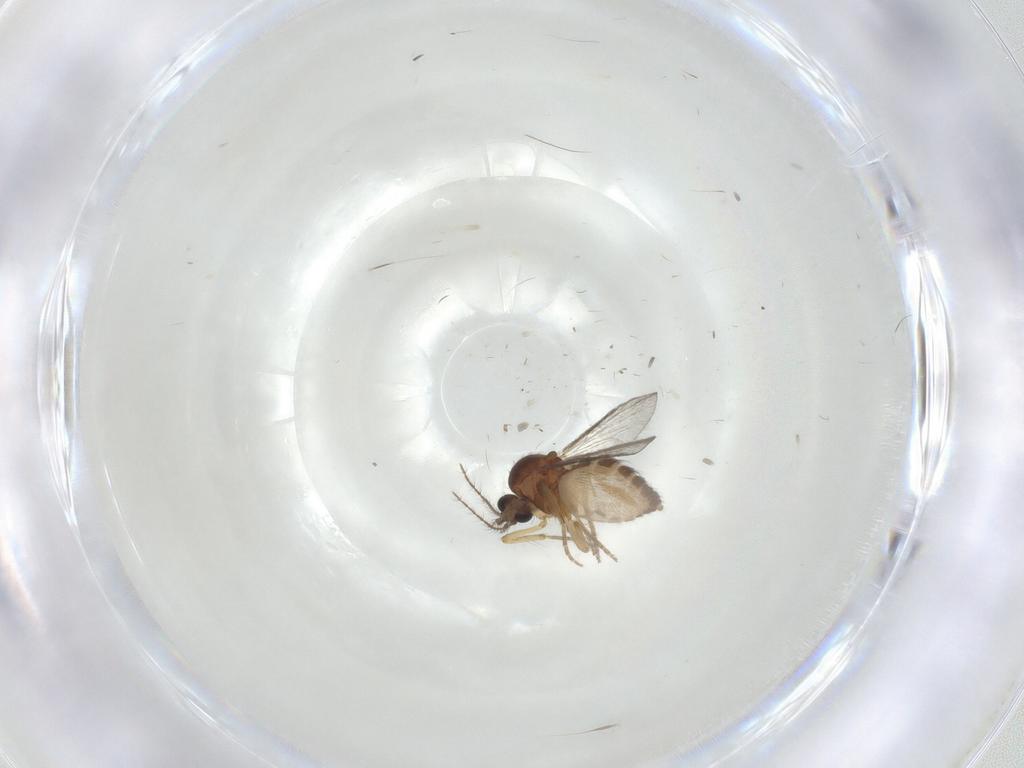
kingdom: Animalia
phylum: Arthropoda
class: Insecta
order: Diptera
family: Ceratopogonidae
